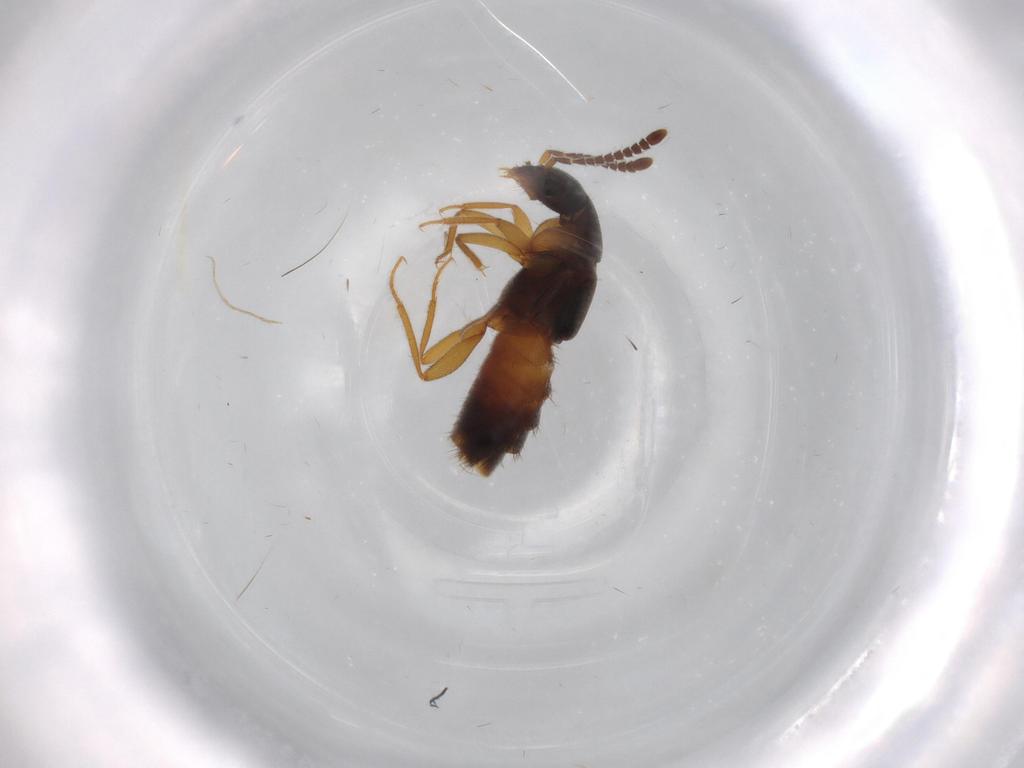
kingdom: Animalia
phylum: Arthropoda
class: Insecta
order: Coleoptera
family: Staphylinidae
